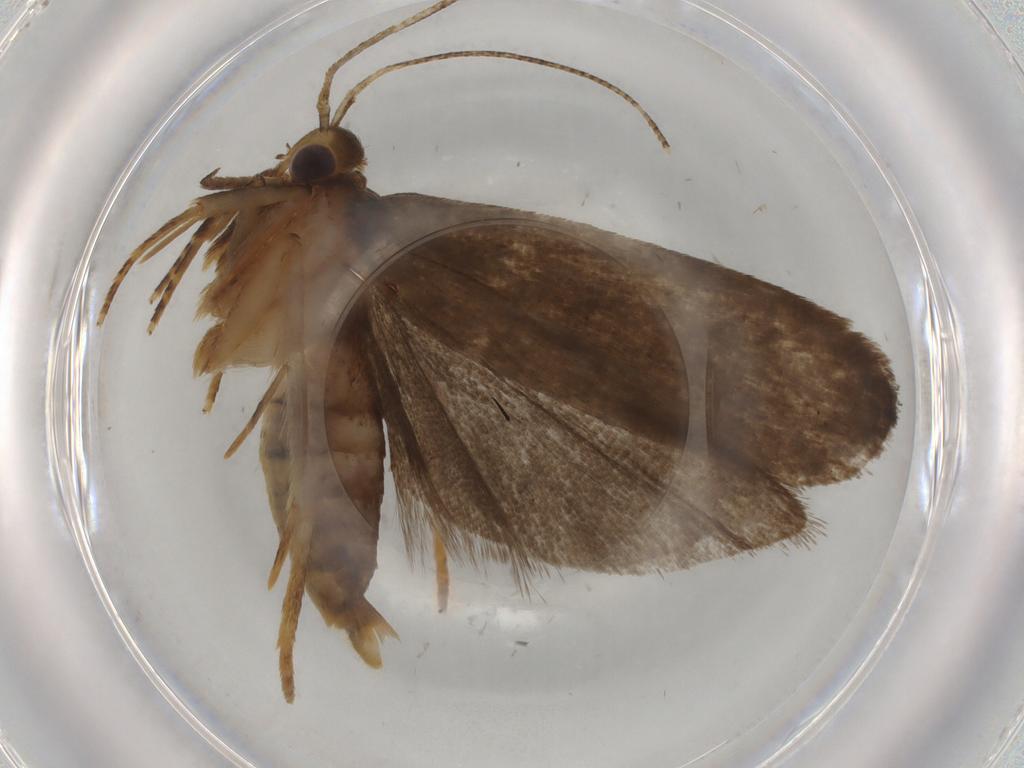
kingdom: Animalia
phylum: Arthropoda
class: Insecta
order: Lepidoptera
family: Autostichidae
